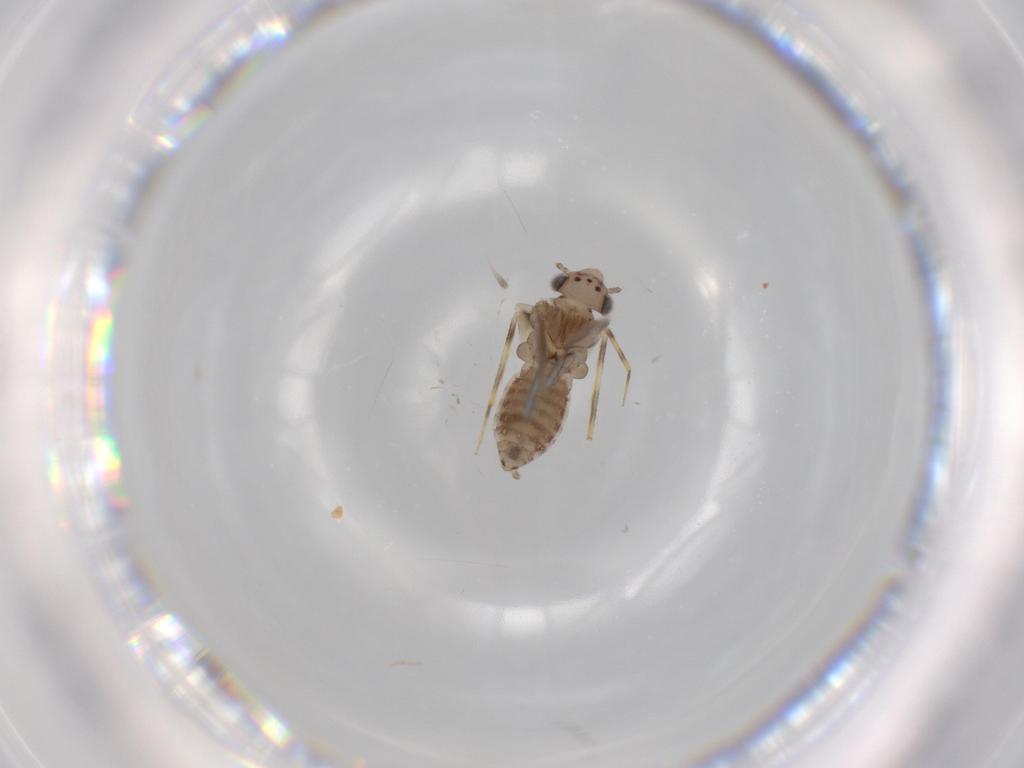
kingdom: Animalia
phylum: Arthropoda
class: Insecta
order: Psocodea
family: Lepidopsocidae
